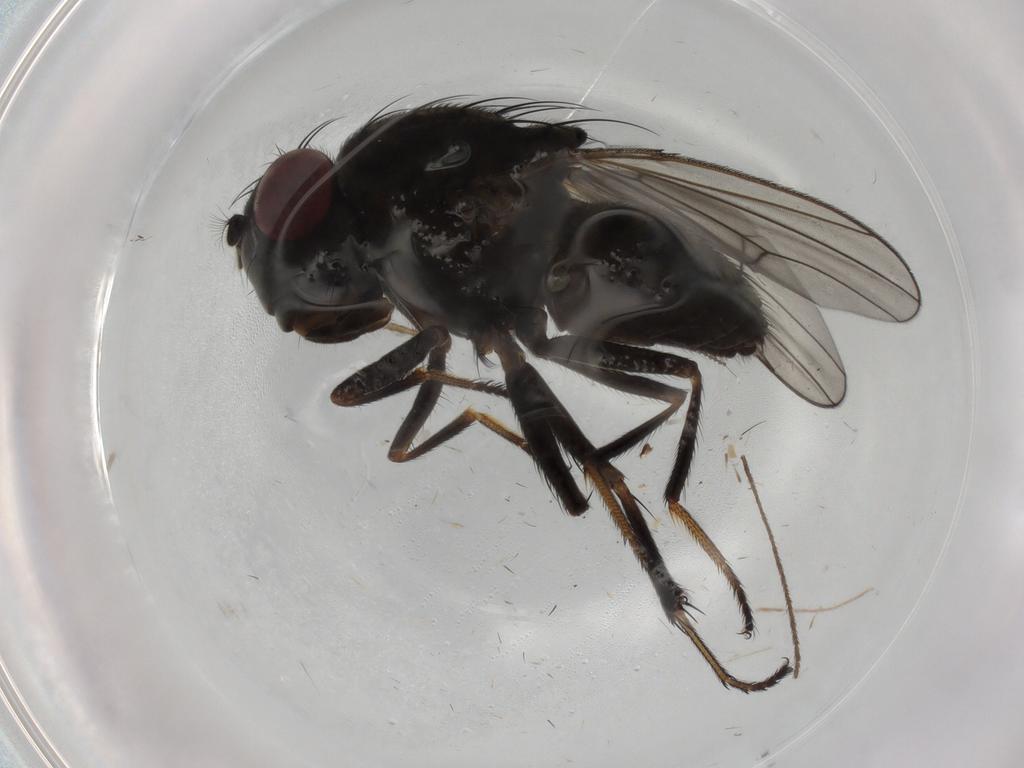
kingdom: Animalia
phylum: Arthropoda
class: Insecta
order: Diptera
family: Ephydridae
